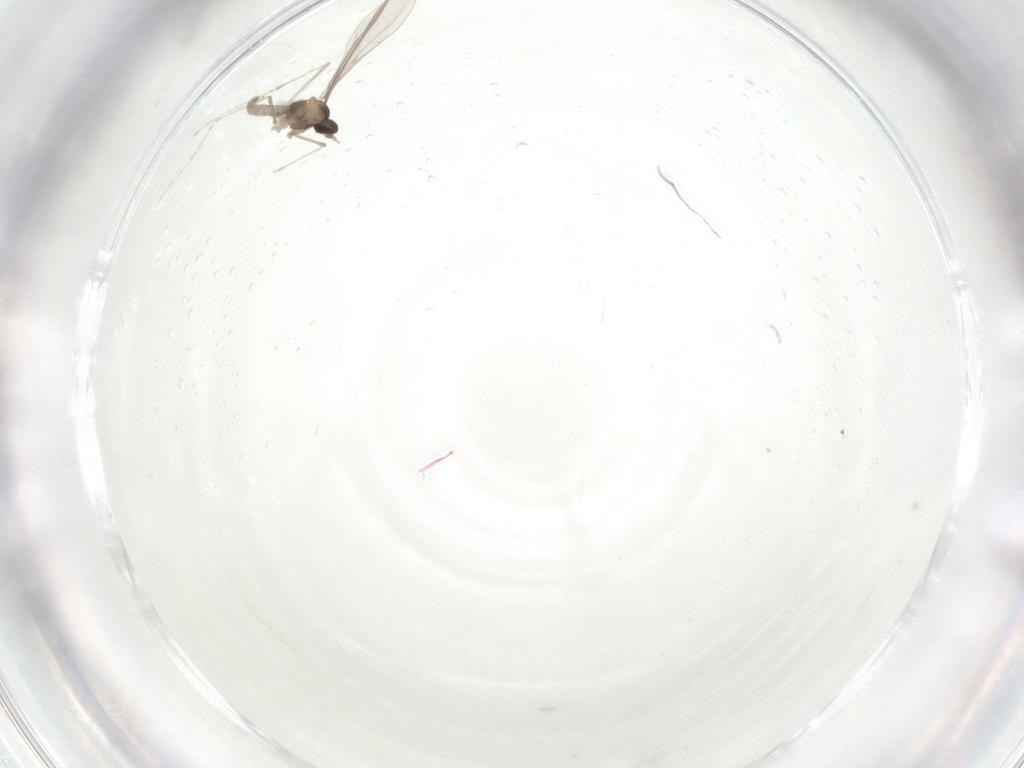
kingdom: Animalia
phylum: Arthropoda
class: Insecta
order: Diptera
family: Cecidomyiidae
